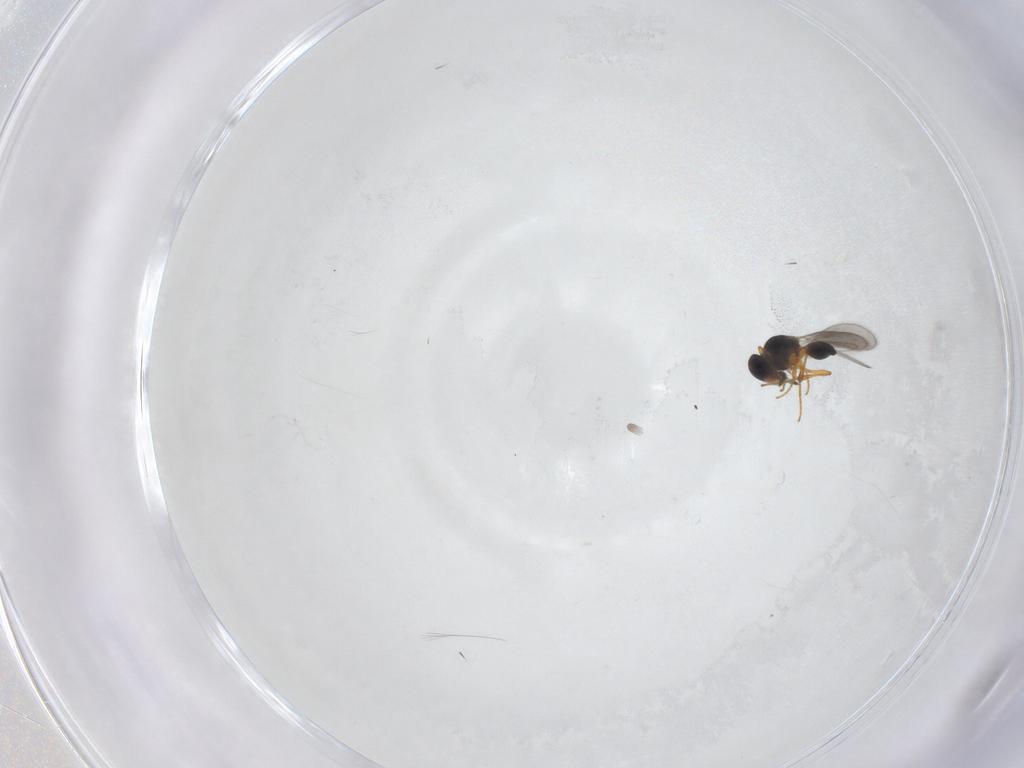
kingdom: Animalia
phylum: Arthropoda
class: Insecta
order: Hymenoptera
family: Platygastridae
